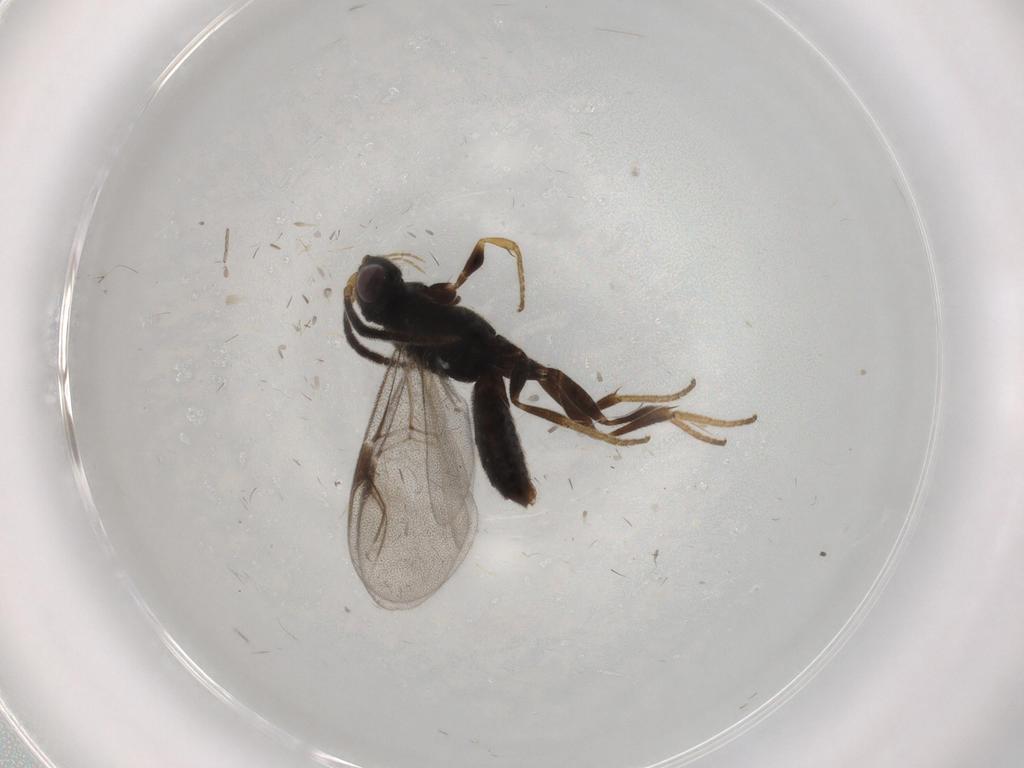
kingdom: Animalia
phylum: Arthropoda
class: Insecta
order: Hymenoptera
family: Dryinidae
